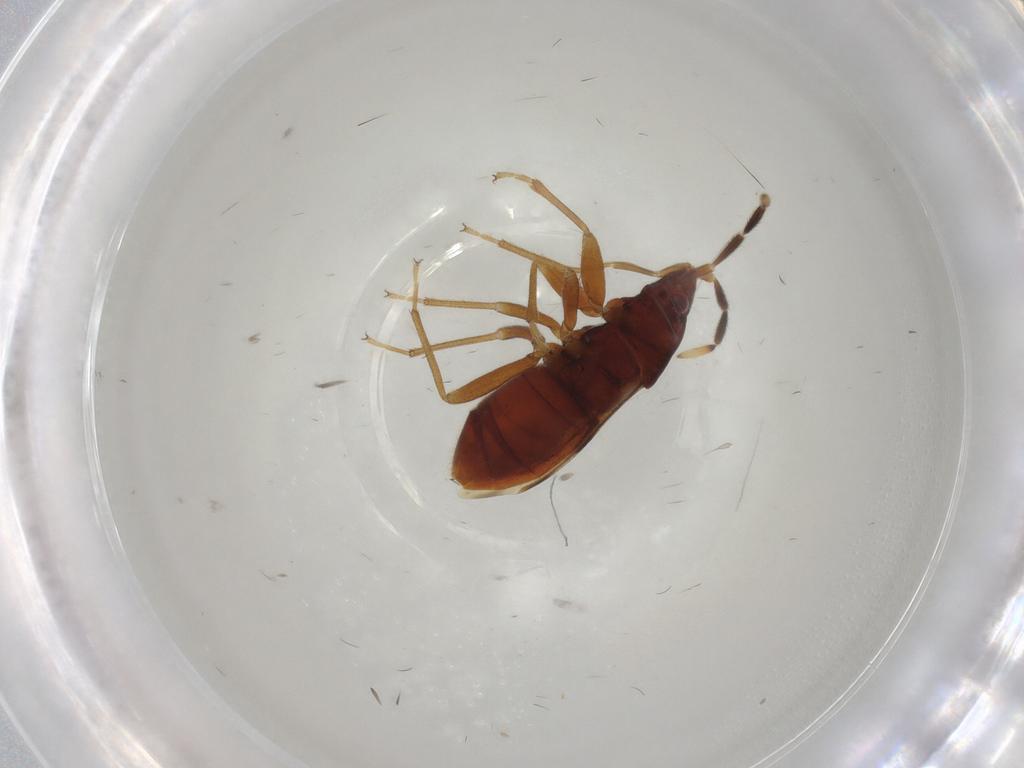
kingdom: Animalia
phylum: Arthropoda
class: Insecta
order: Hemiptera
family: Rhyparochromidae
